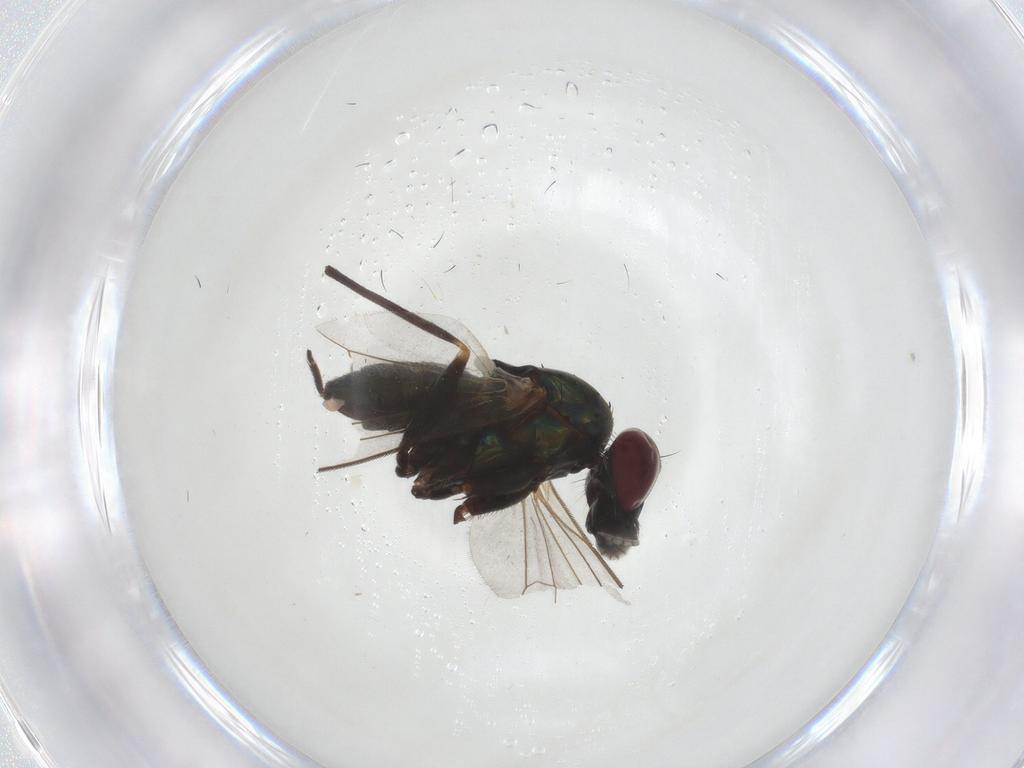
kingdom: Animalia
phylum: Arthropoda
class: Insecta
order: Diptera
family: Dolichopodidae
